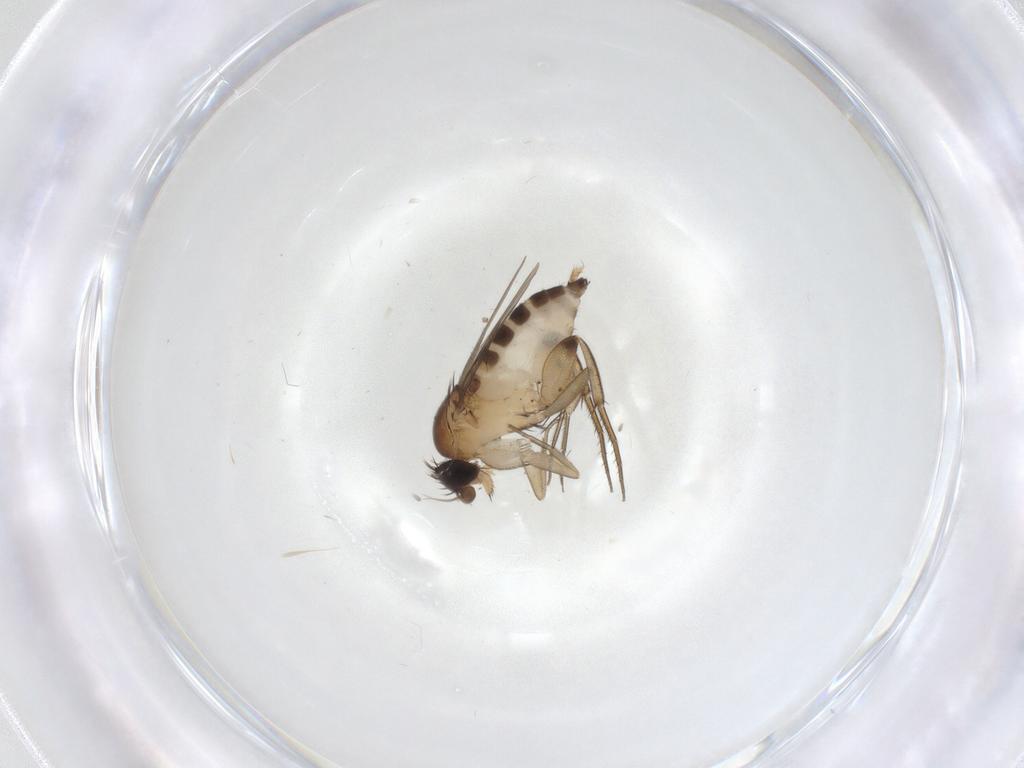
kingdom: Animalia
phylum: Arthropoda
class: Insecta
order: Diptera
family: Phoridae
